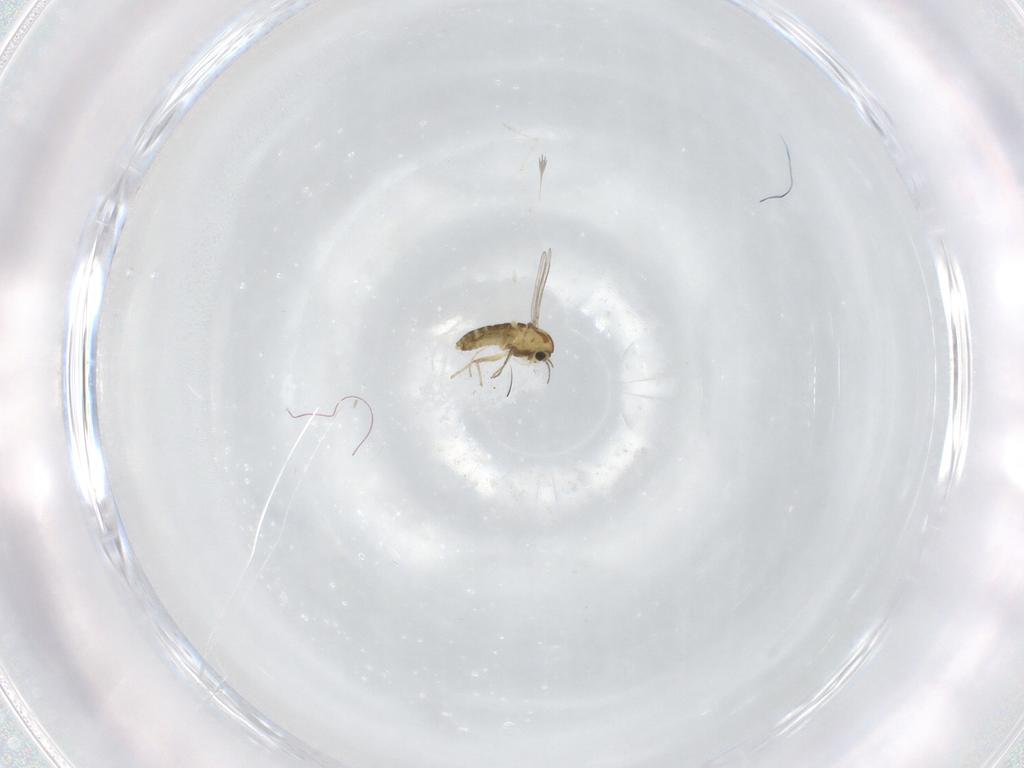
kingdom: Animalia
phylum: Arthropoda
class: Insecta
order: Diptera
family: Chironomidae
